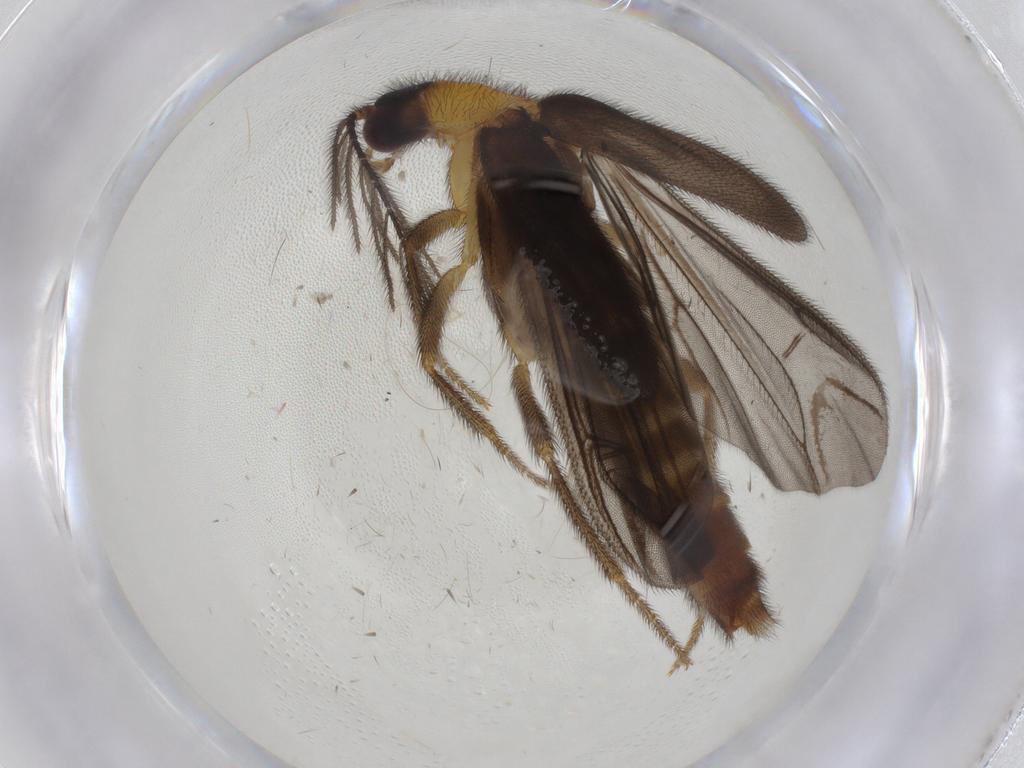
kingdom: Animalia
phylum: Arthropoda
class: Insecta
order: Coleoptera
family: Phengodidae
